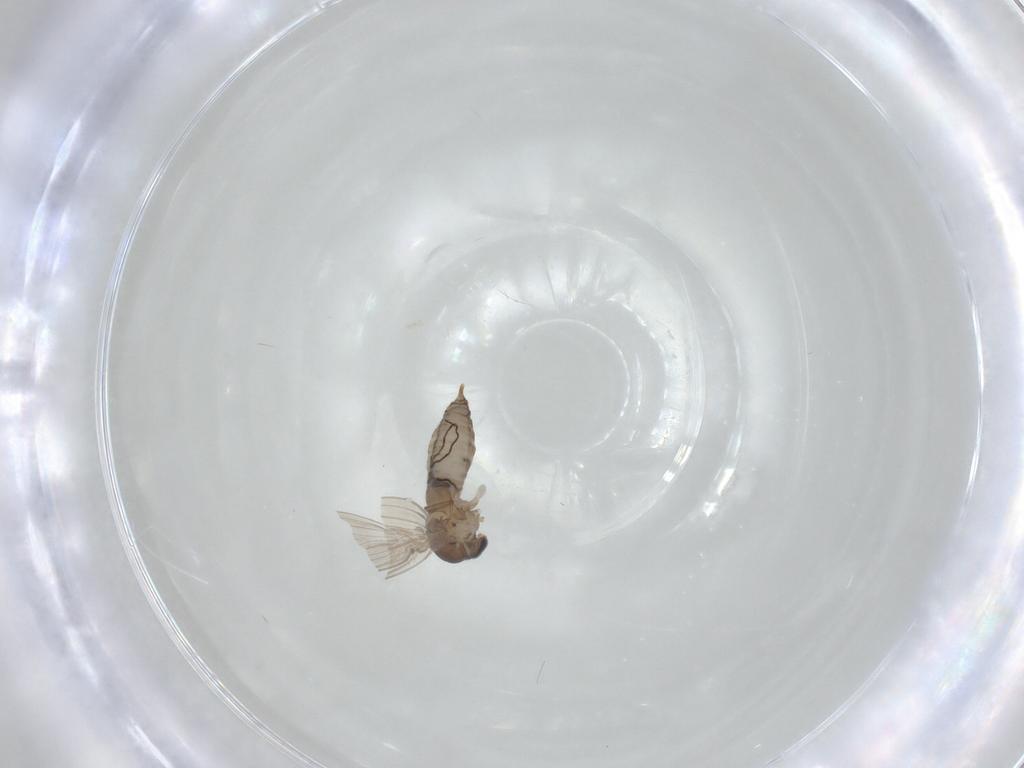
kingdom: Animalia
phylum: Arthropoda
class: Insecta
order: Diptera
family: Psychodidae
